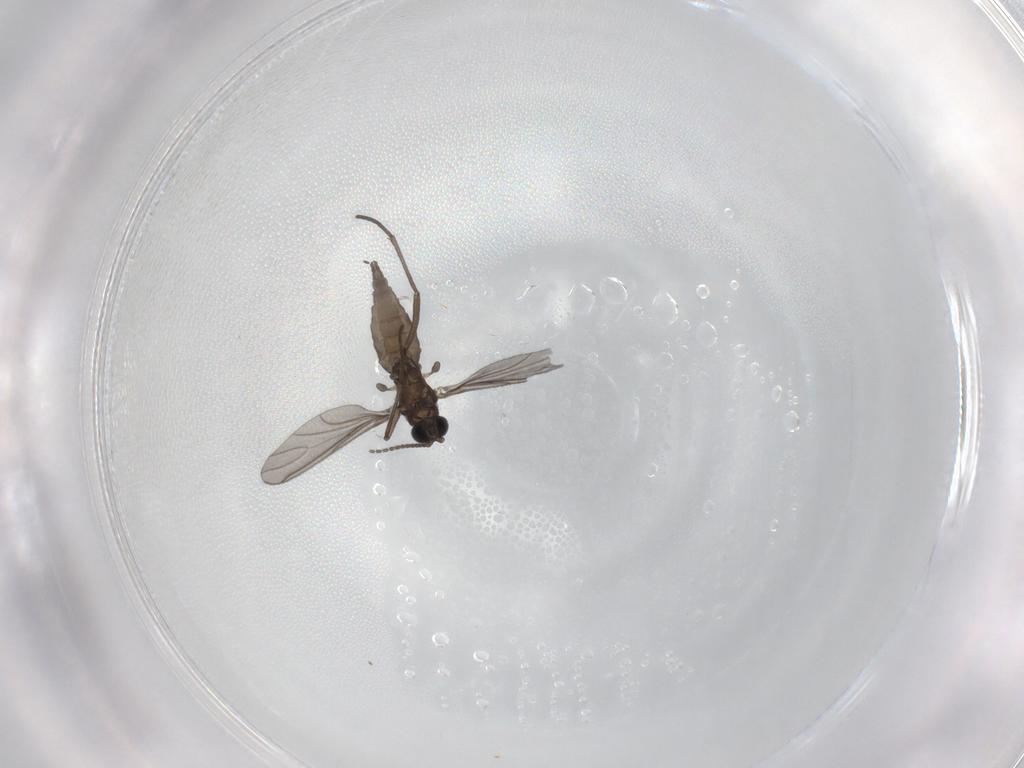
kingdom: Animalia
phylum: Arthropoda
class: Insecta
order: Diptera
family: Sciaridae
